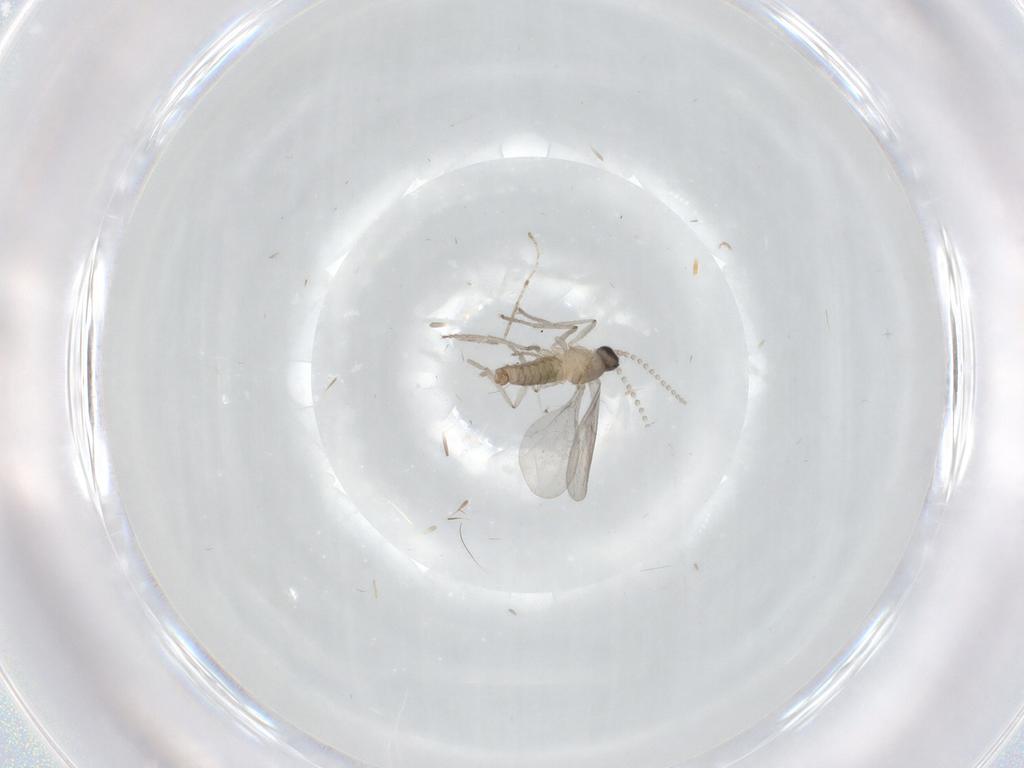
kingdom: Animalia
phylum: Arthropoda
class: Insecta
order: Diptera
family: Cecidomyiidae
